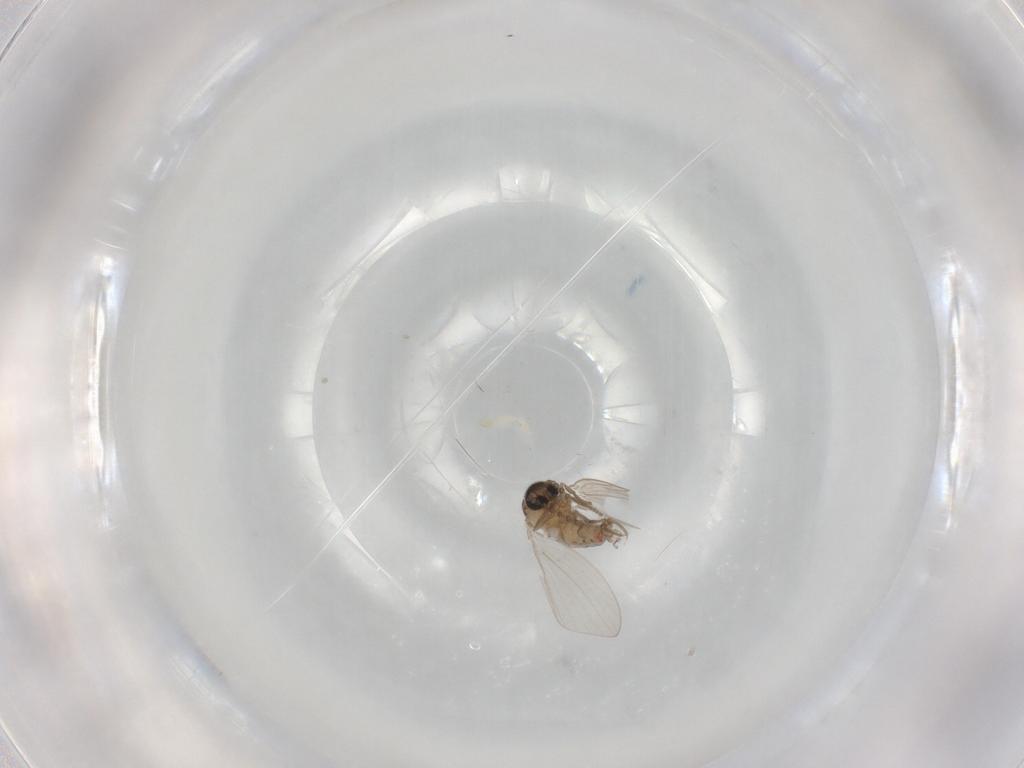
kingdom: Animalia
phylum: Arthropoda
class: Insecta
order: Diptera
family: Psychodidae
